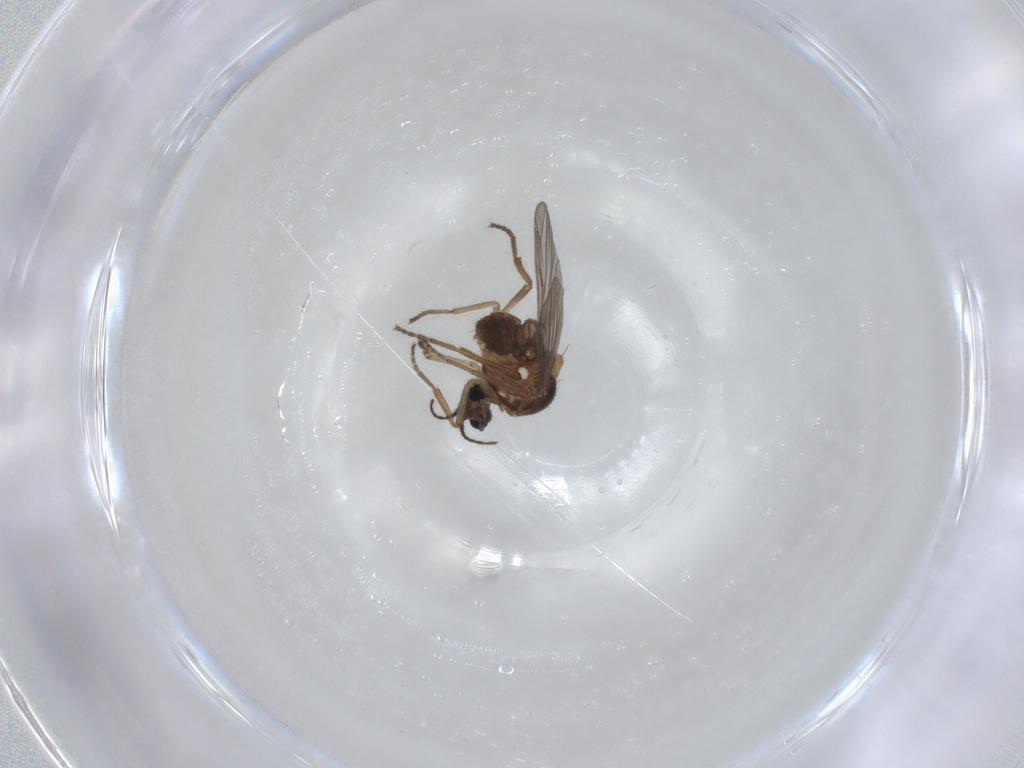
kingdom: Animalia
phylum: Arthropoda
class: Insecta
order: Diptera
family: Ceratopogonidae
